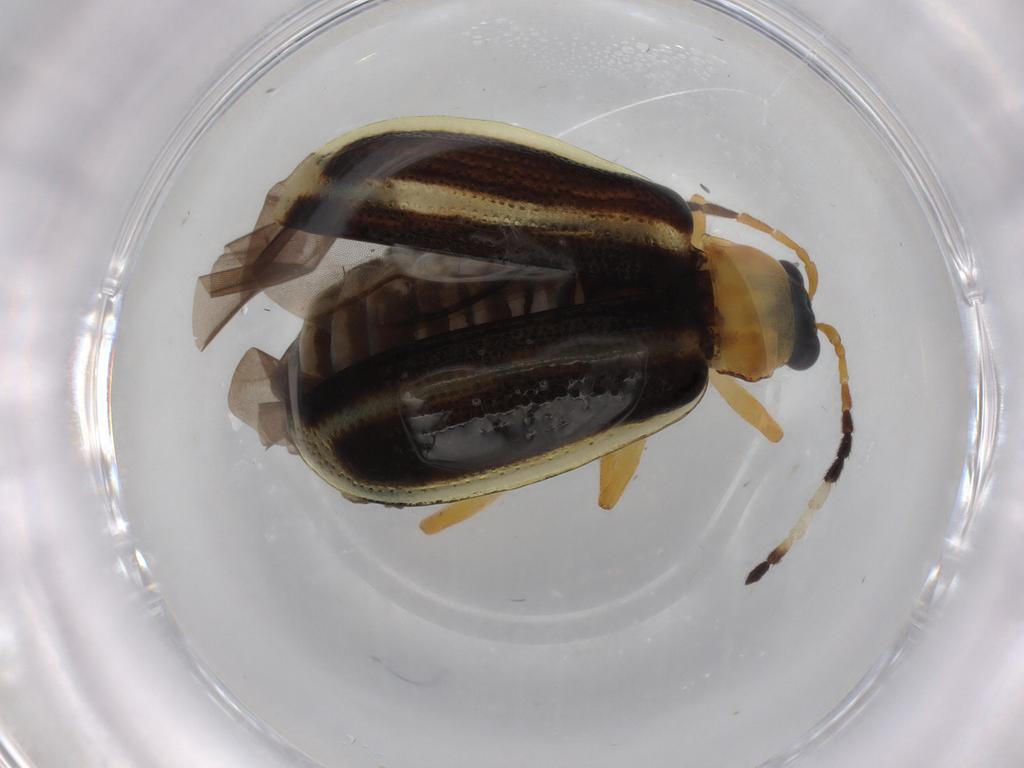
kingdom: Animalia
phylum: Arthropoda
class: Insecta
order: Coleoptera
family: Chrysomelidae
